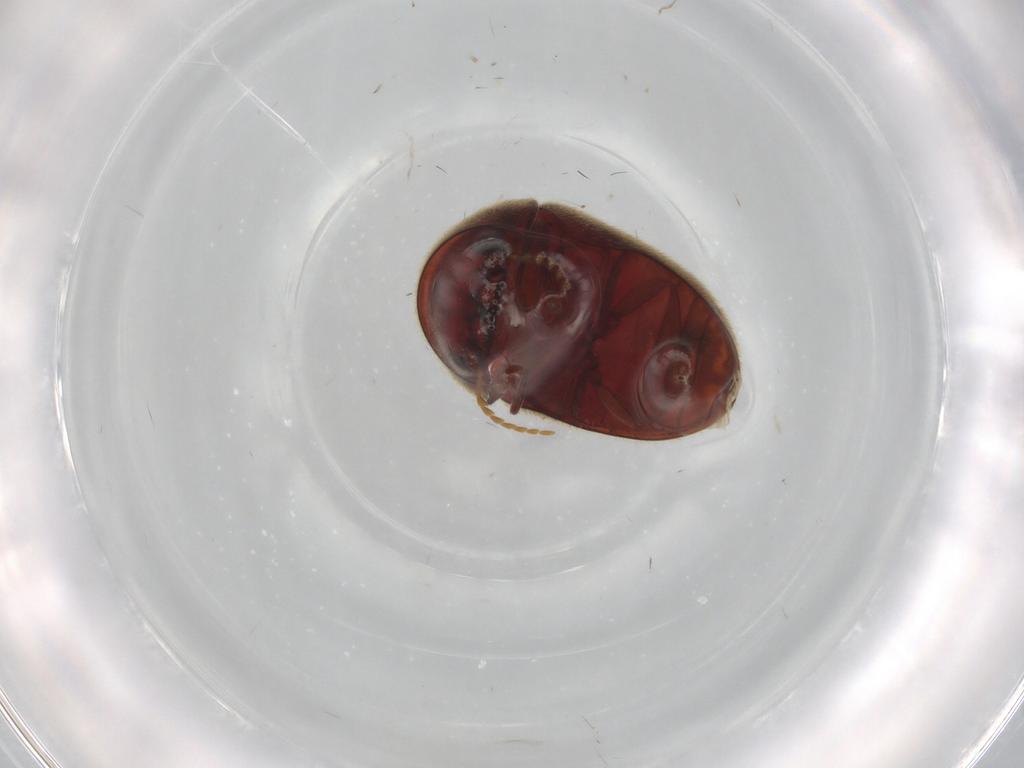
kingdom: Animalia
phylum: Arthropoda
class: Insecta
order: Coleoptera
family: Ptinidae
